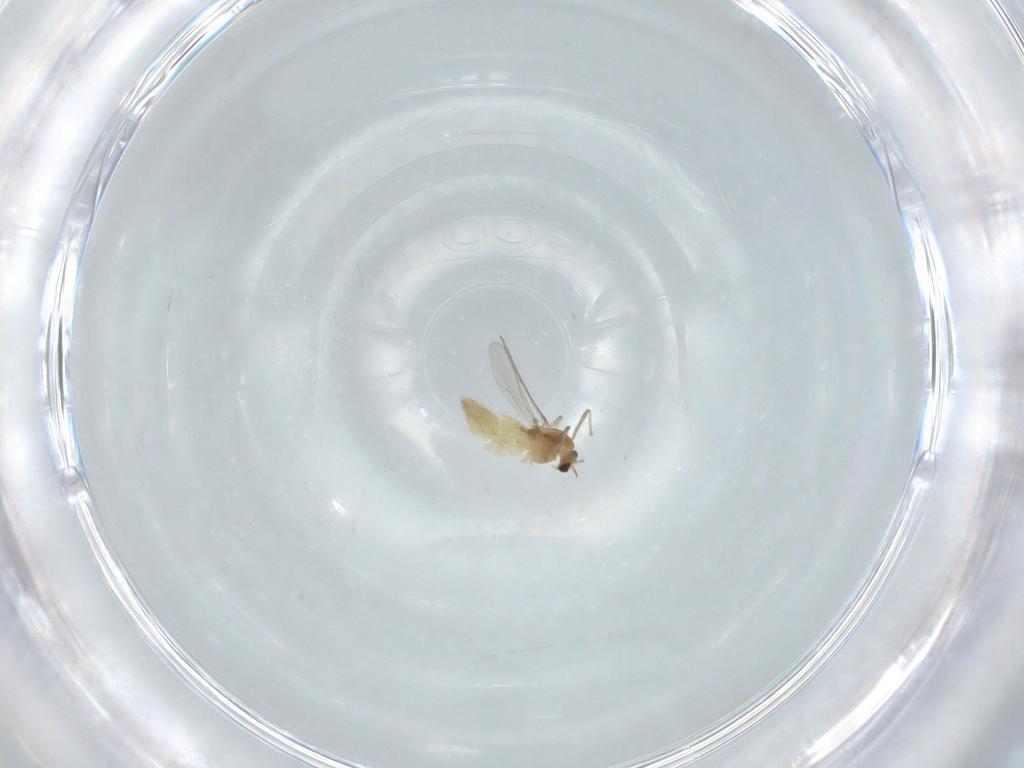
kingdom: Animalia
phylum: Arthropoda
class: Insecta
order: Diptera
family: Chironomidae
